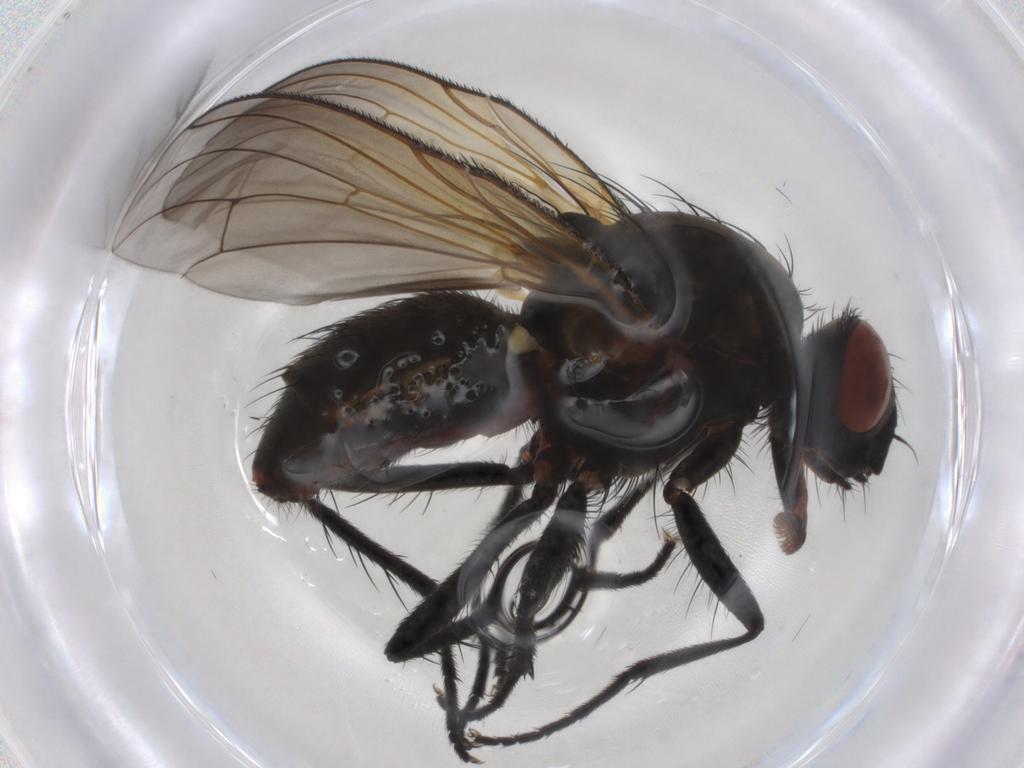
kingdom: Animalia
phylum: Arthropoda
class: Insecta
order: Diptera
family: Anthomyiidae
